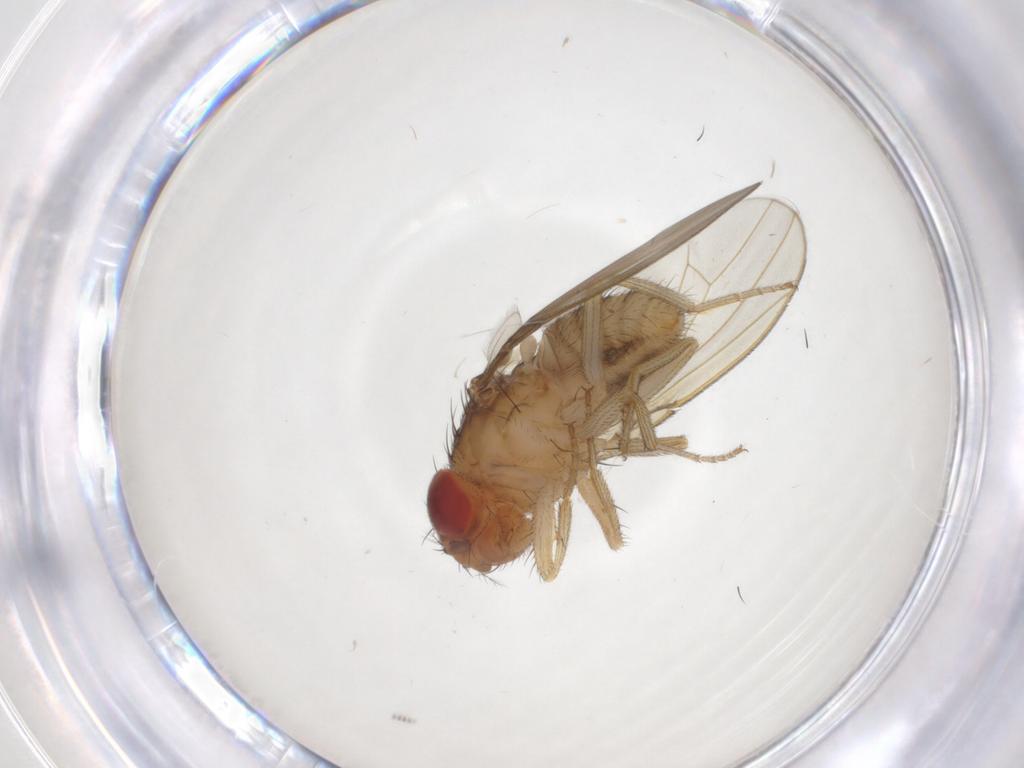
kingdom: Animalia
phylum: Arthropoda
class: Insecta
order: Diptera
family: Drosophilidae
